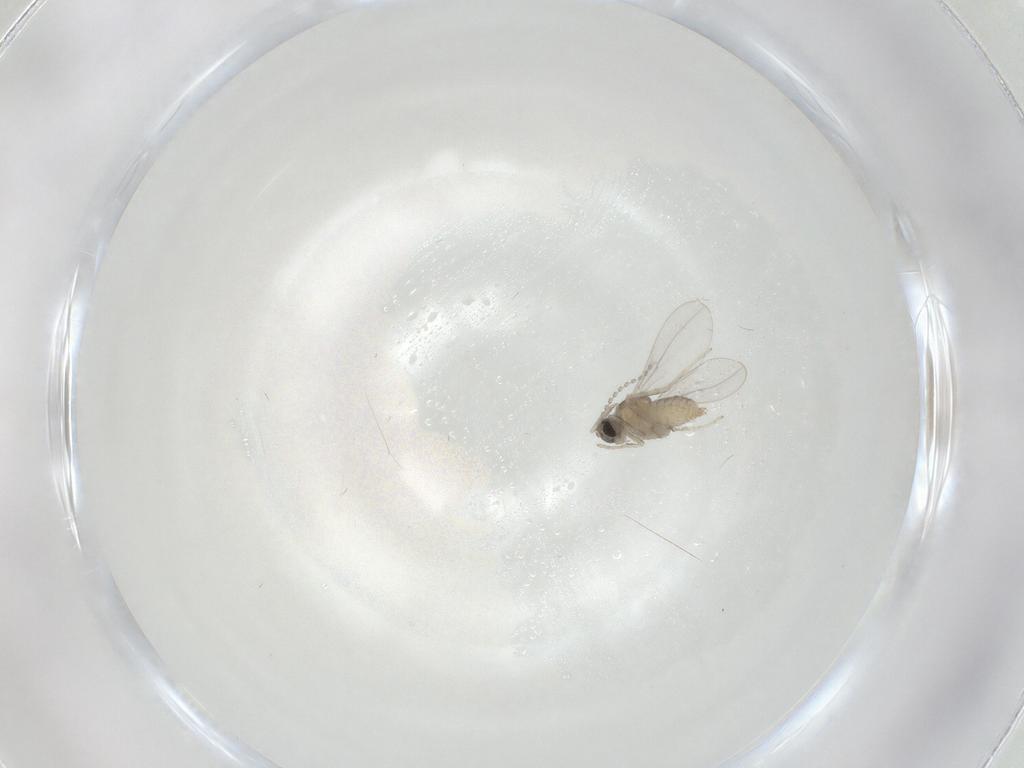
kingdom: Animalia
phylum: Arthropoda
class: Insecta
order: Diptera
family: Cecidomyiidae
